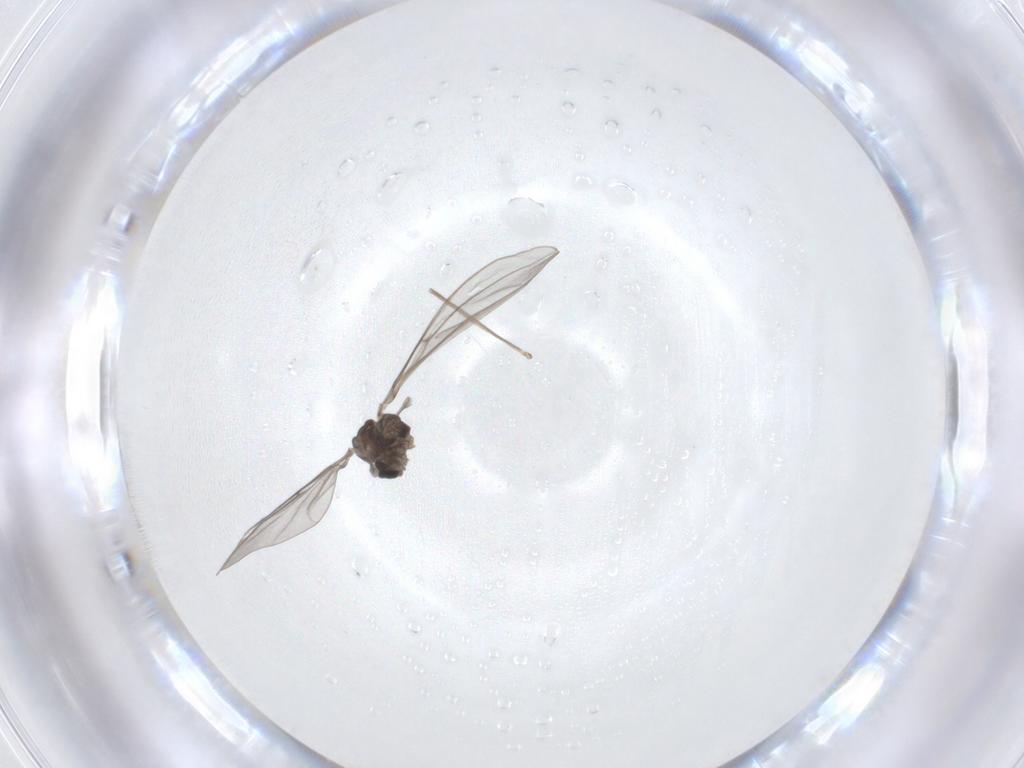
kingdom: Animalia
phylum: Arthropoda
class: Insecta
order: Diptera
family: Cecidomyiidae
